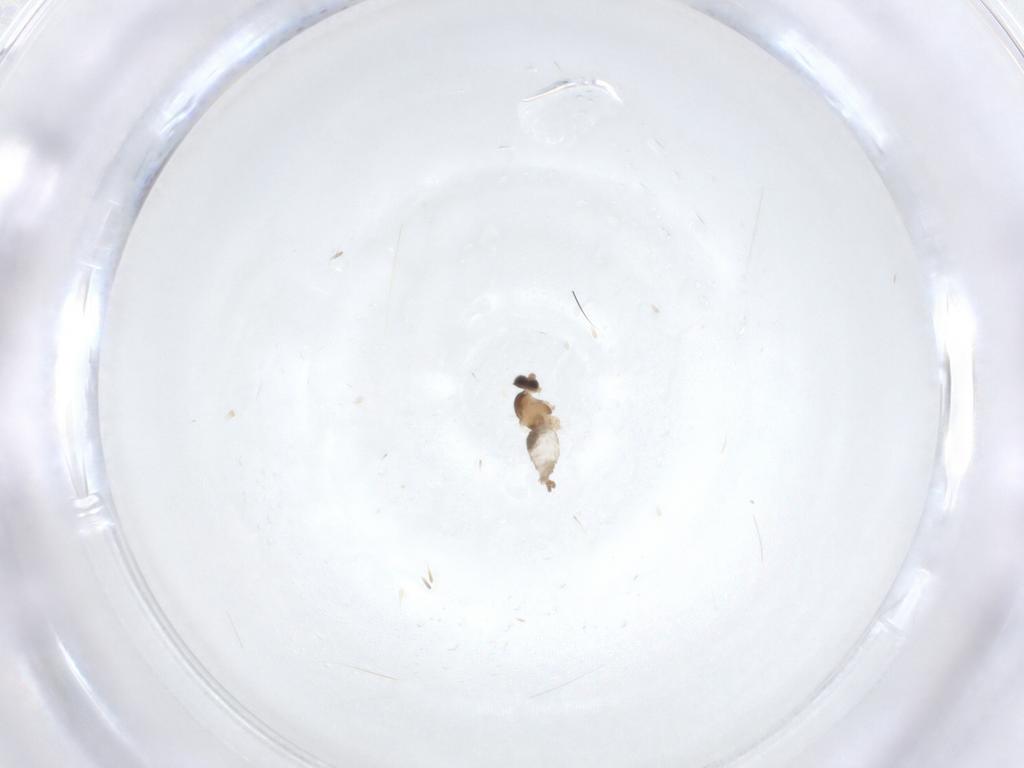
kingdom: Animalia
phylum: Arthropoda
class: Insecta
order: Diptera
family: Cecidomyiidae
